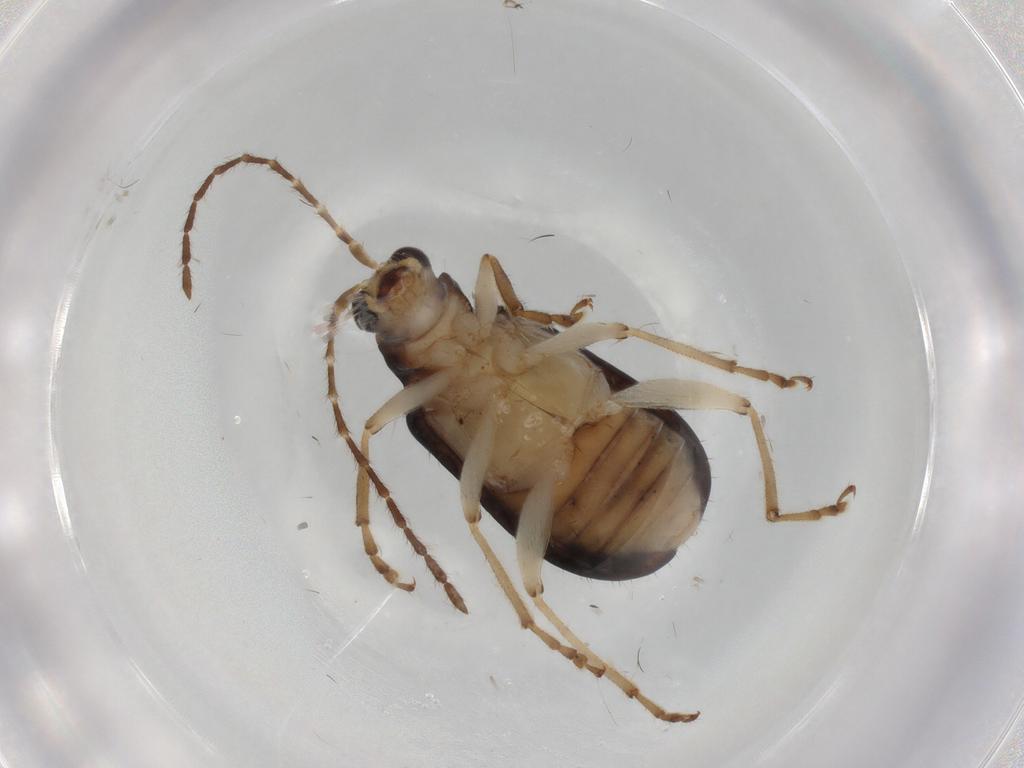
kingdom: Animalia
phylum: Arthropoda
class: Insecta
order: Coleoptera
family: Chrysomelidae
